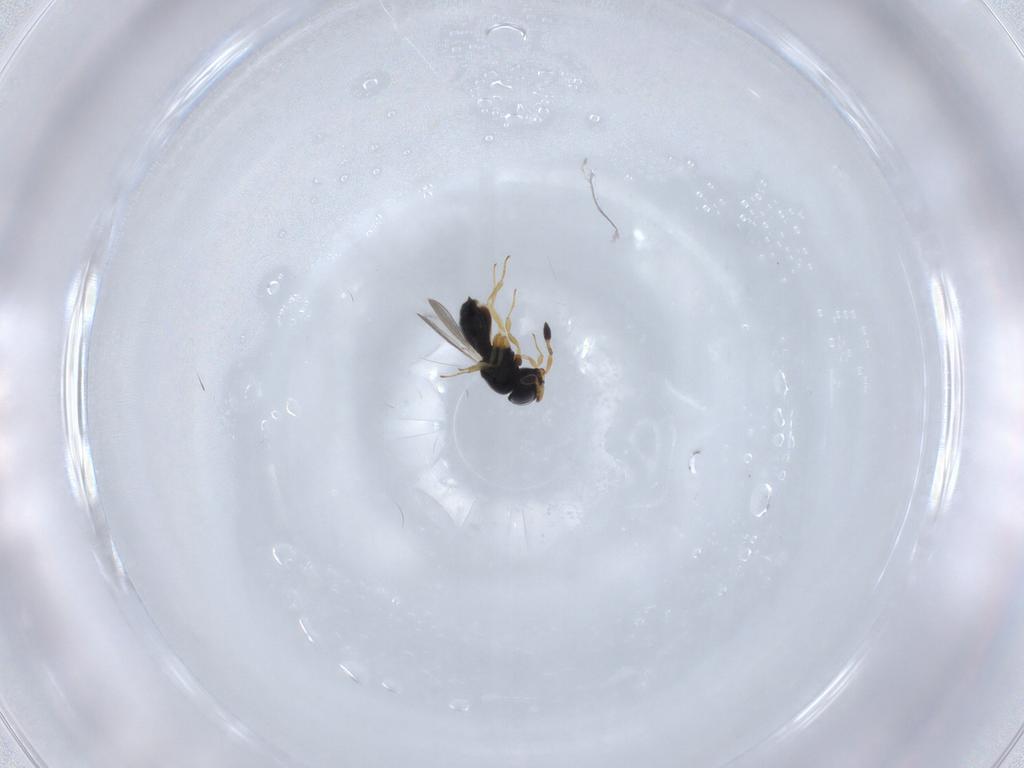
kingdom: Animalia
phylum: Arthropoda
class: Insecta
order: Hymenoptera
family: Scelionidae
